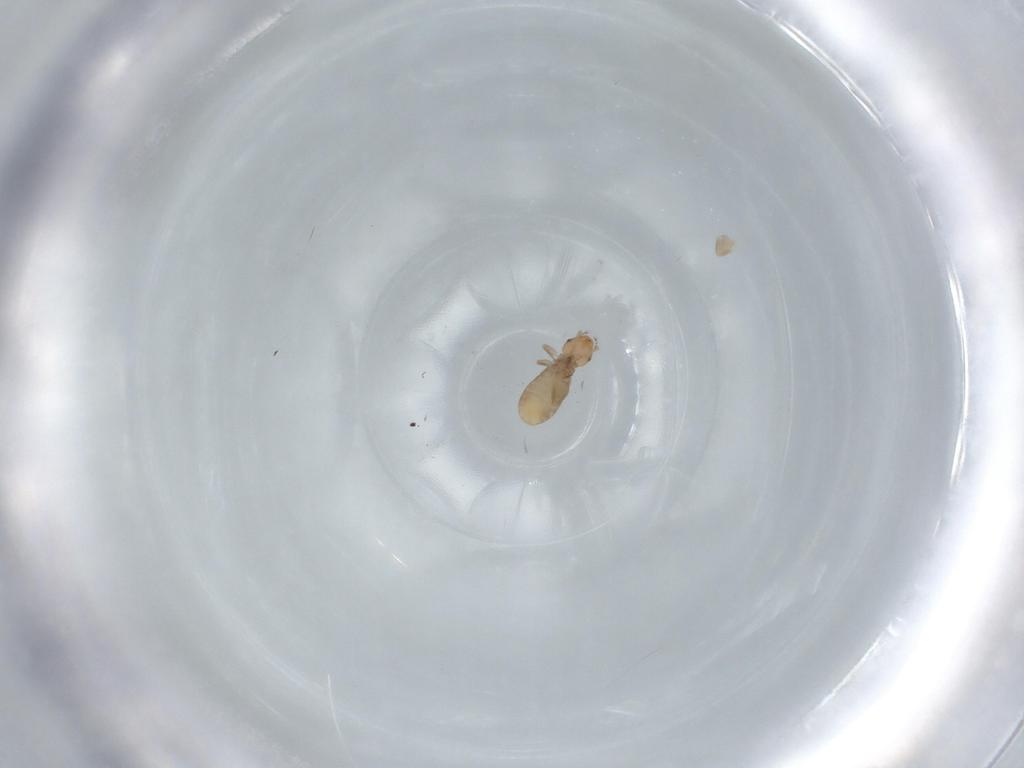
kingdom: Animalia
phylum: Arthropoda
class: Insecta
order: Psocodea
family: Liposcelididae
